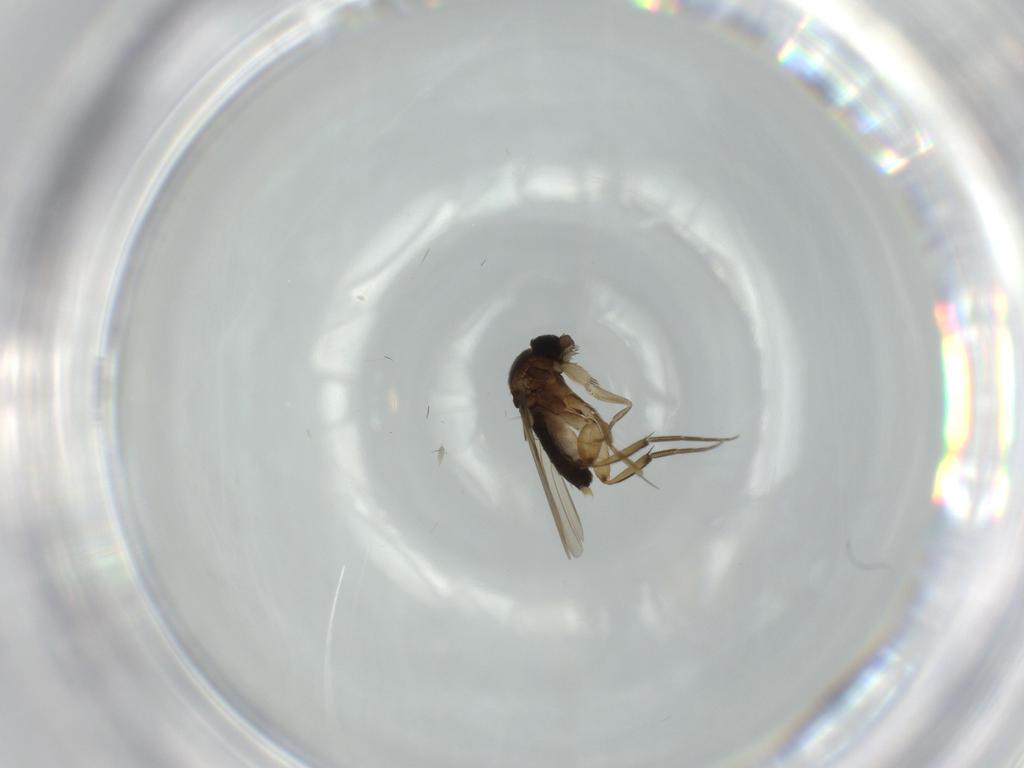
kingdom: Animalia
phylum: Arthropoda
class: Insecta
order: Diptera
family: Phoridae
